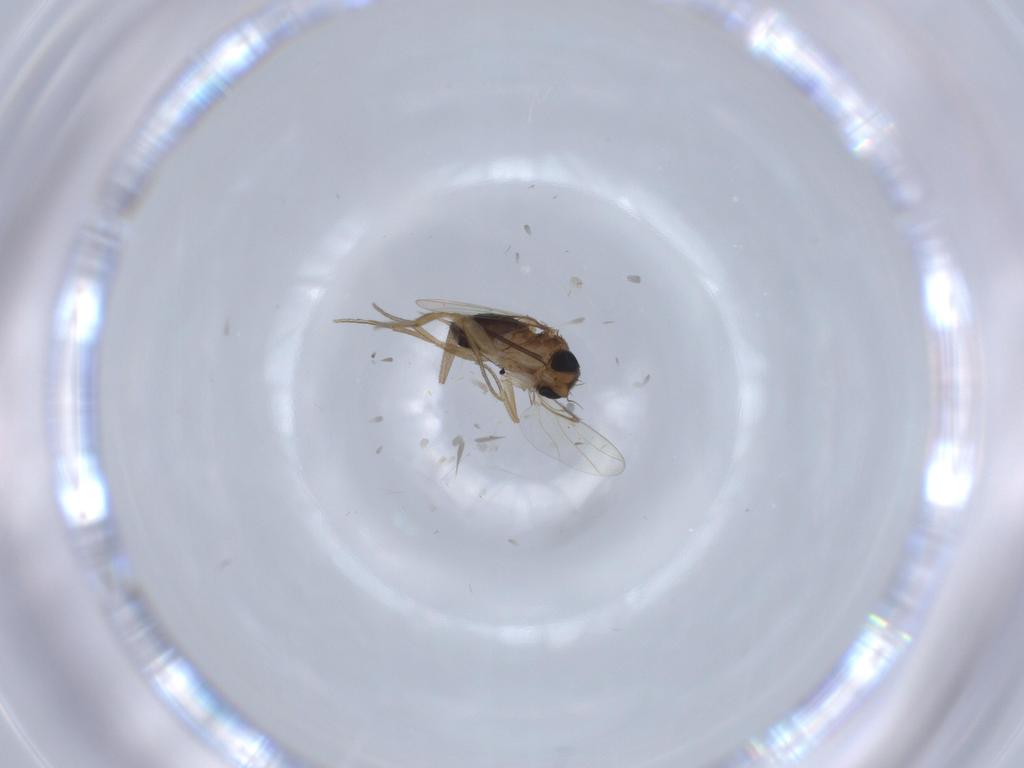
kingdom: Animalia
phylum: Arthropoda
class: Insecta
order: Diptera
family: Phoridae
